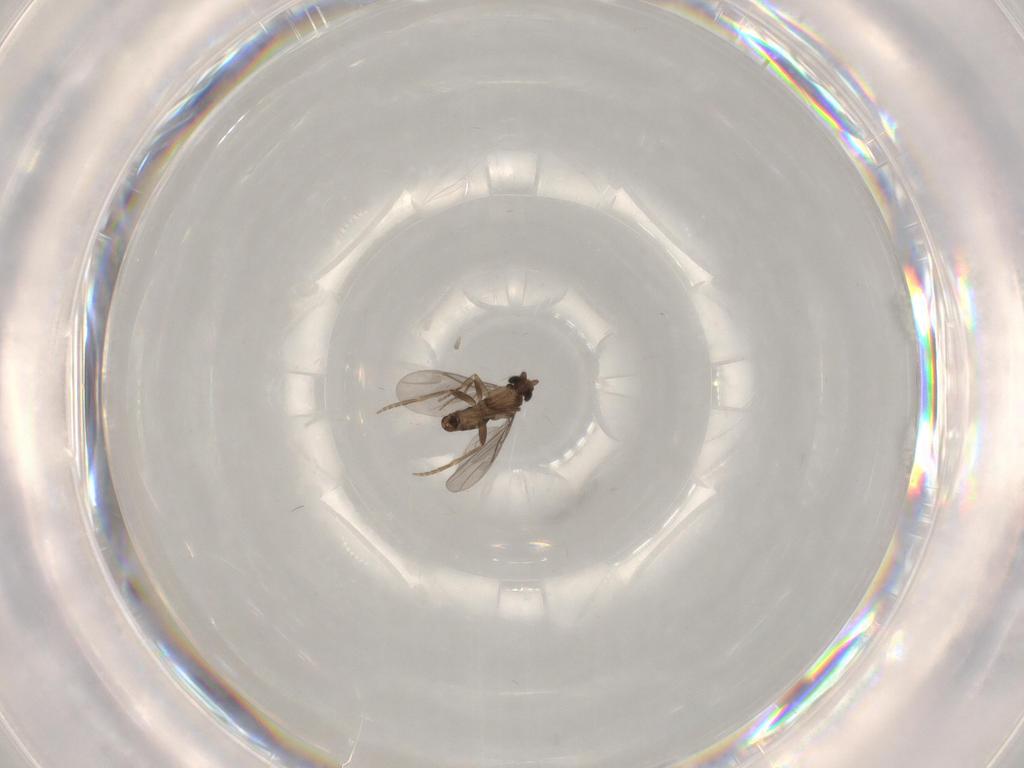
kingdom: Animalia
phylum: Arthropoda
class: Insecta
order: Diptera
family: Phoridae
